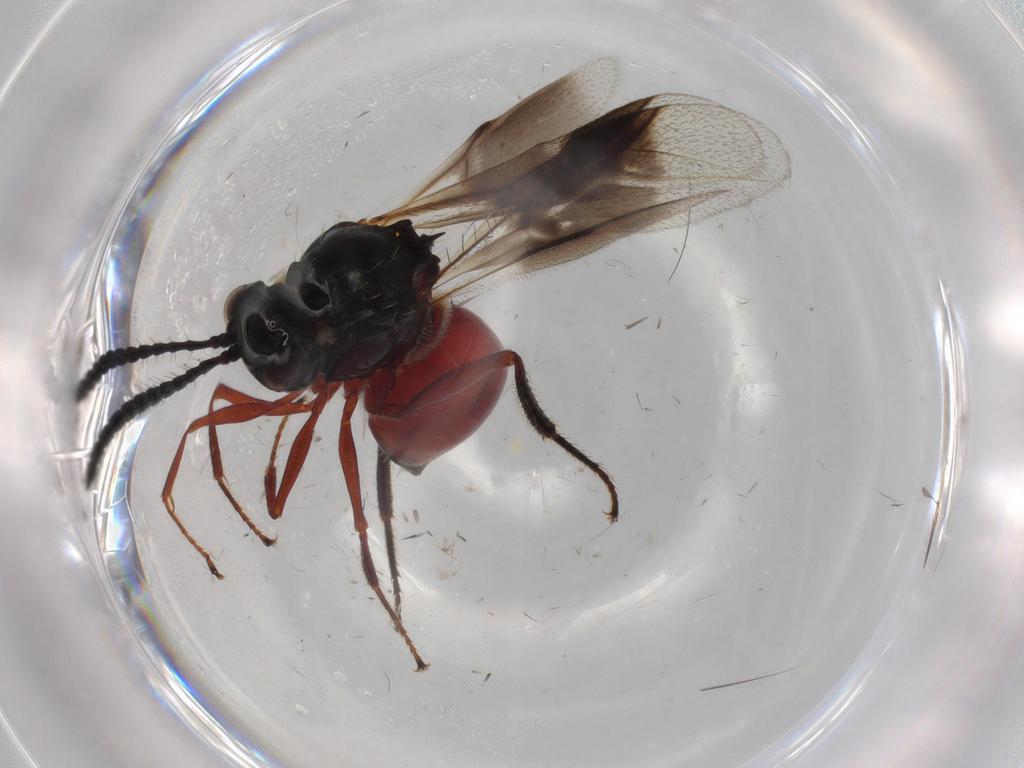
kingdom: Animalia
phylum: Arthropoda
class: Insecta
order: Hymenoptera
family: Figitidae
